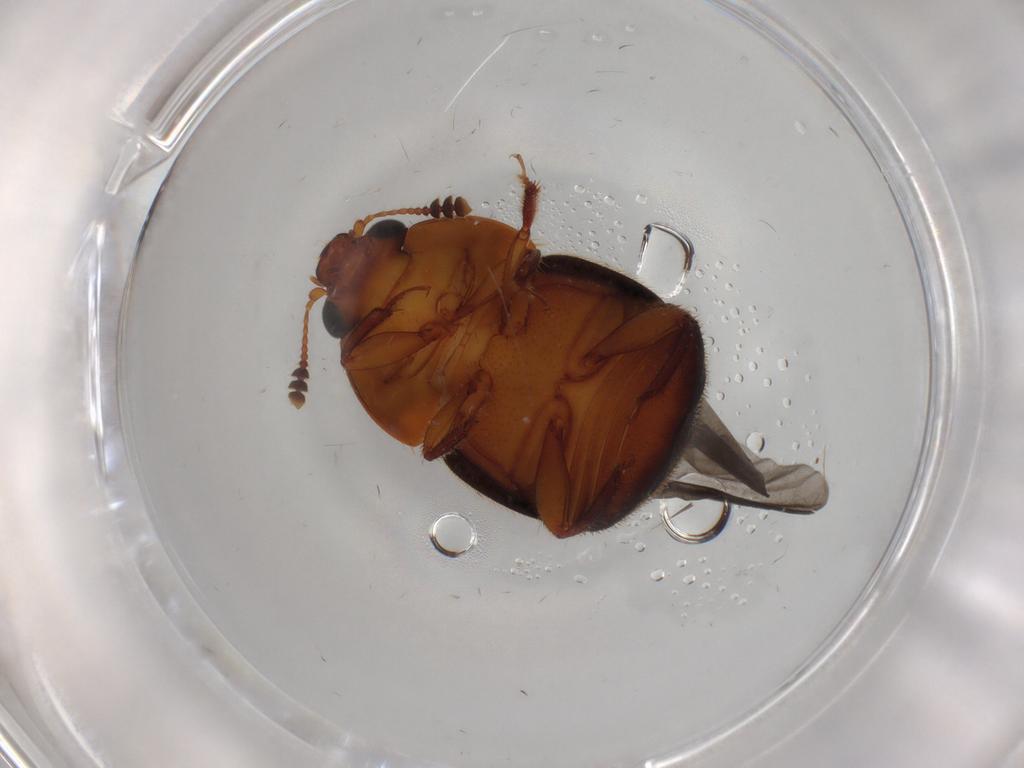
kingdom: Animalia
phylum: Arthropoda
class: Insecta
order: Coleoptera
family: Nitidulidae
